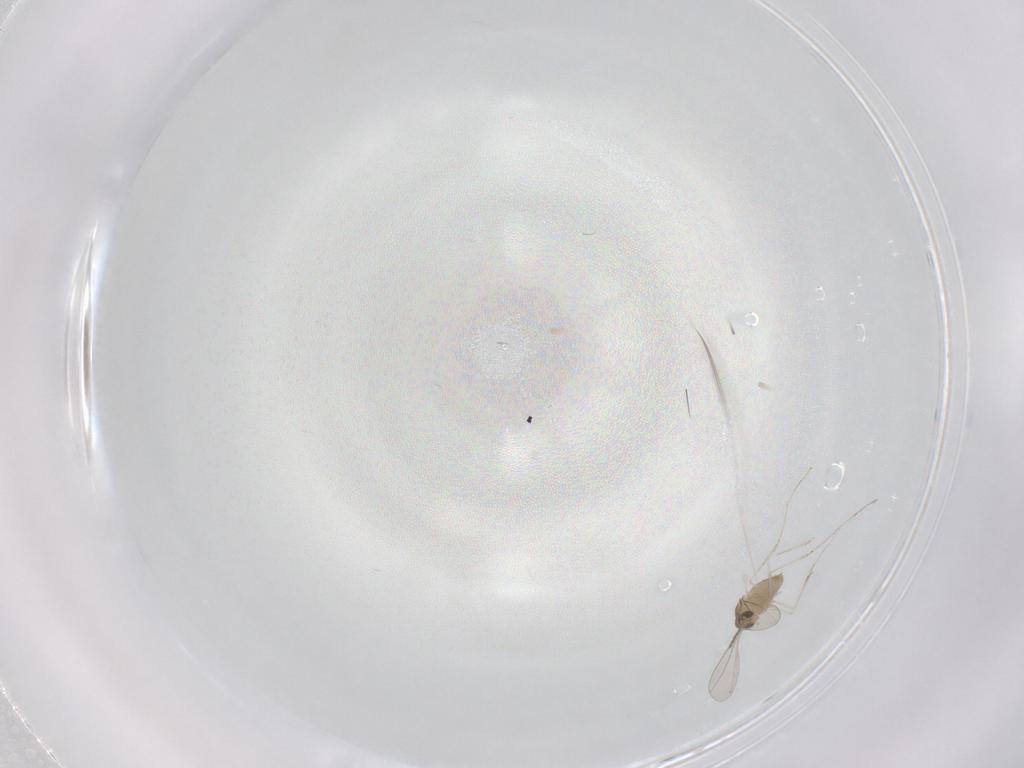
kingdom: Animalia
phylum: Arthropoda
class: Insecta
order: Diptera
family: Sciaridae
